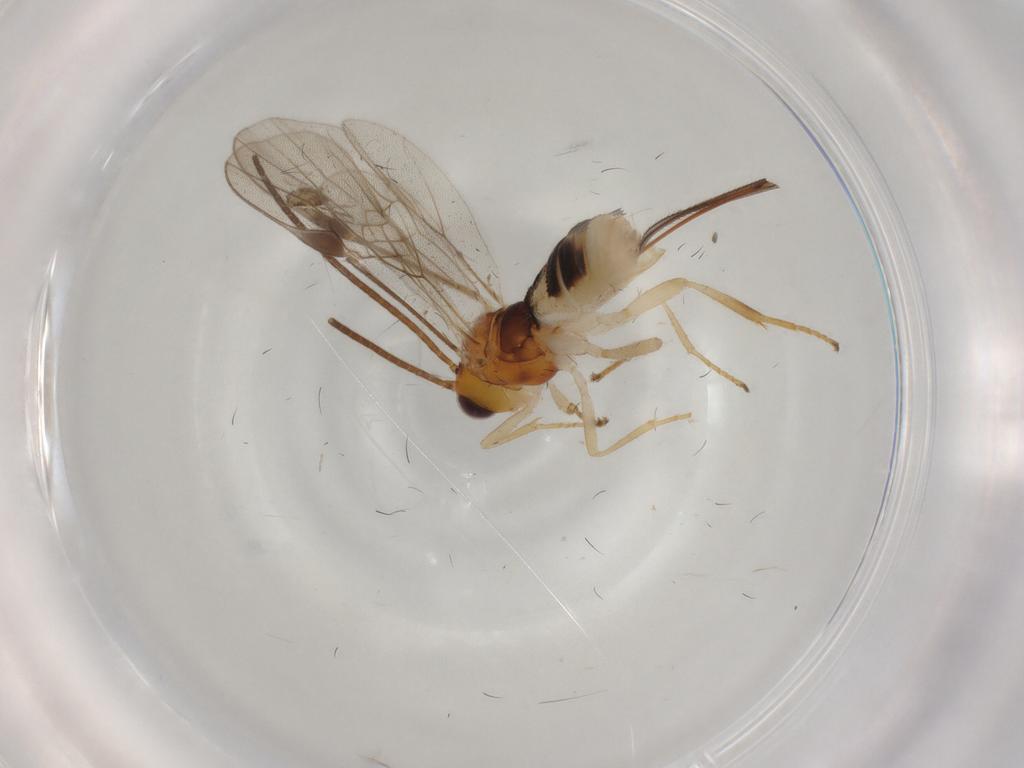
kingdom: Animalia
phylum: Arthropoda
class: Insecta
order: Hymenoptera
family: Braconidae
